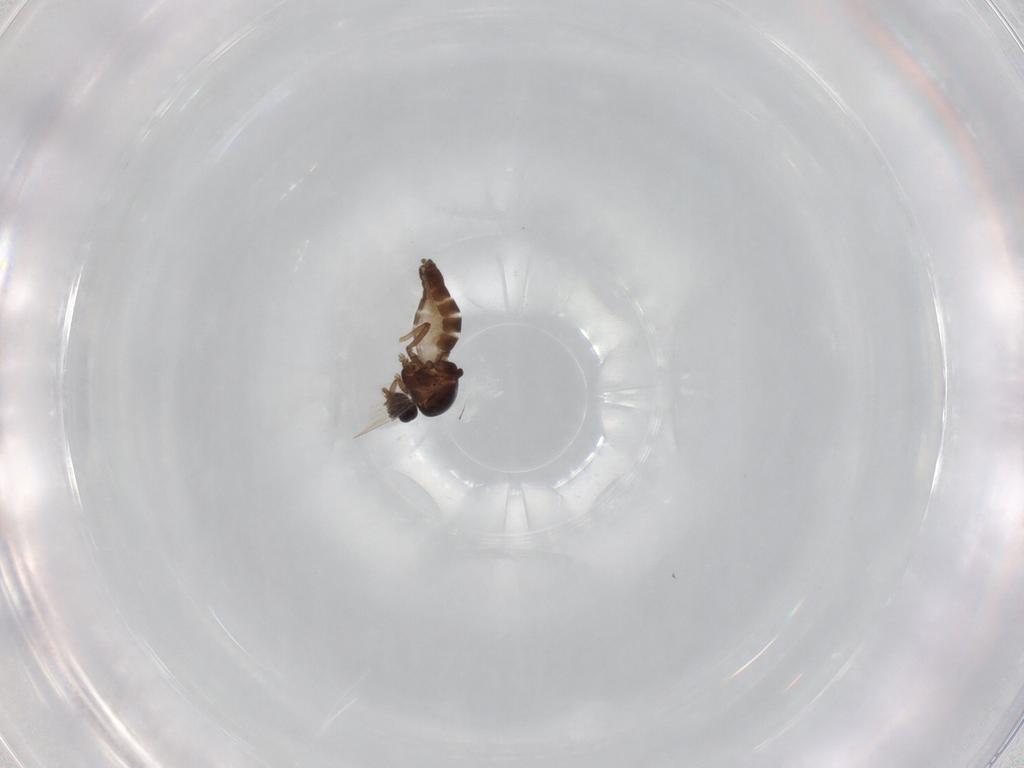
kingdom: Animalia
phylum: Arthropoda
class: Insecta
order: Diptera
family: Ceratopogonidae
